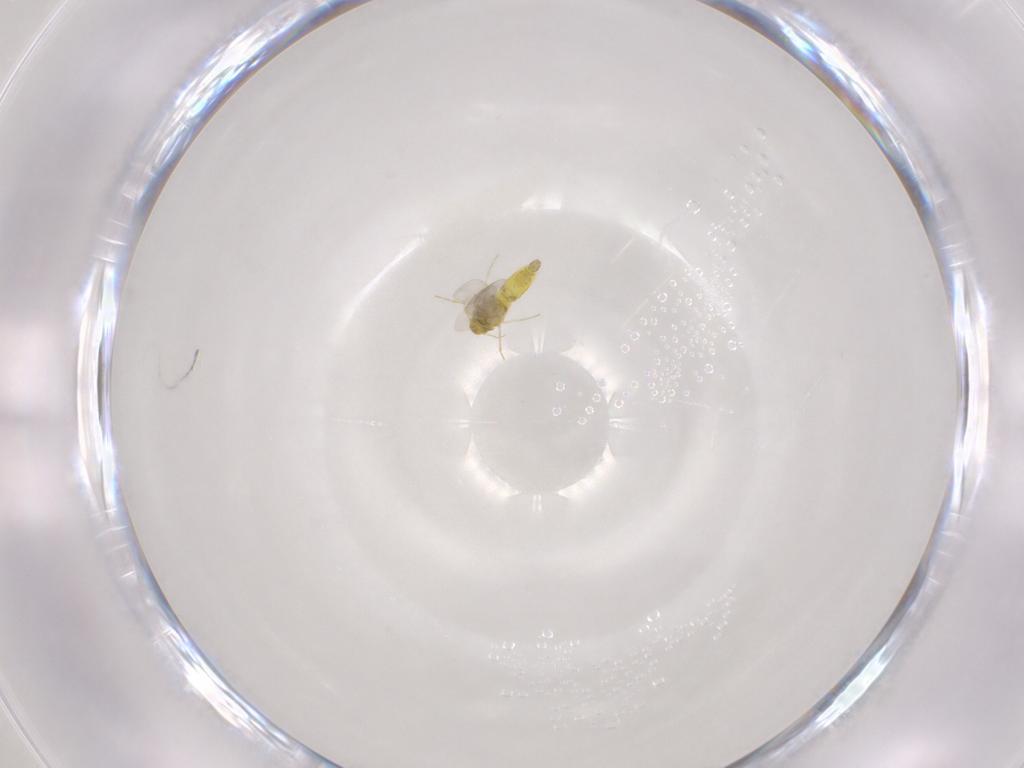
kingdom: Animalia
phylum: Arthropoda
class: Insecta
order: Hemiptera
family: Aleyrodidae
